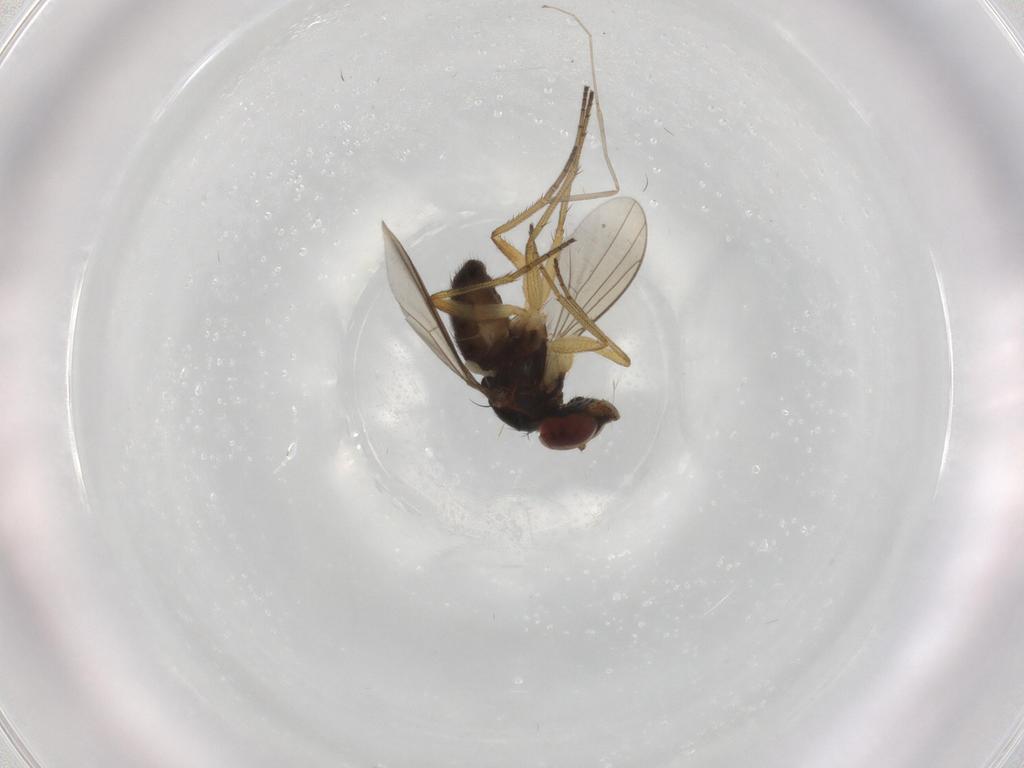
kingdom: Animalia
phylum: Arthropoda
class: Insecta
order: Diptera
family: Dolichopodidae
